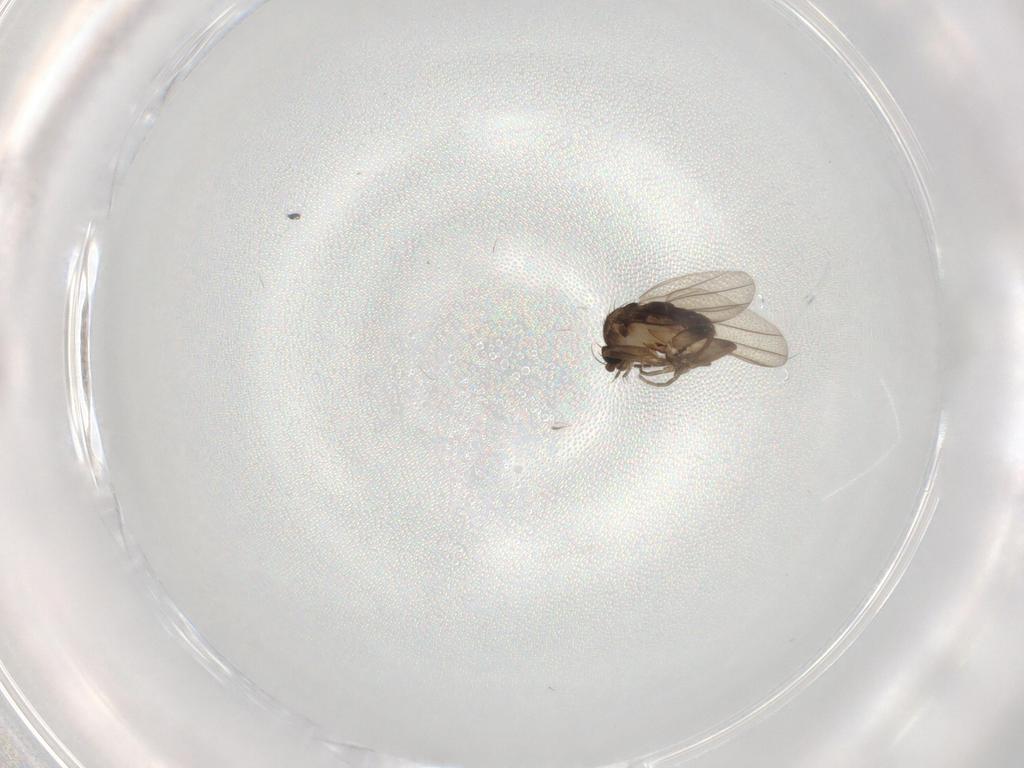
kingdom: Animalia
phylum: Arthropoda
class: Insecta
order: Diptera
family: Phoridae
